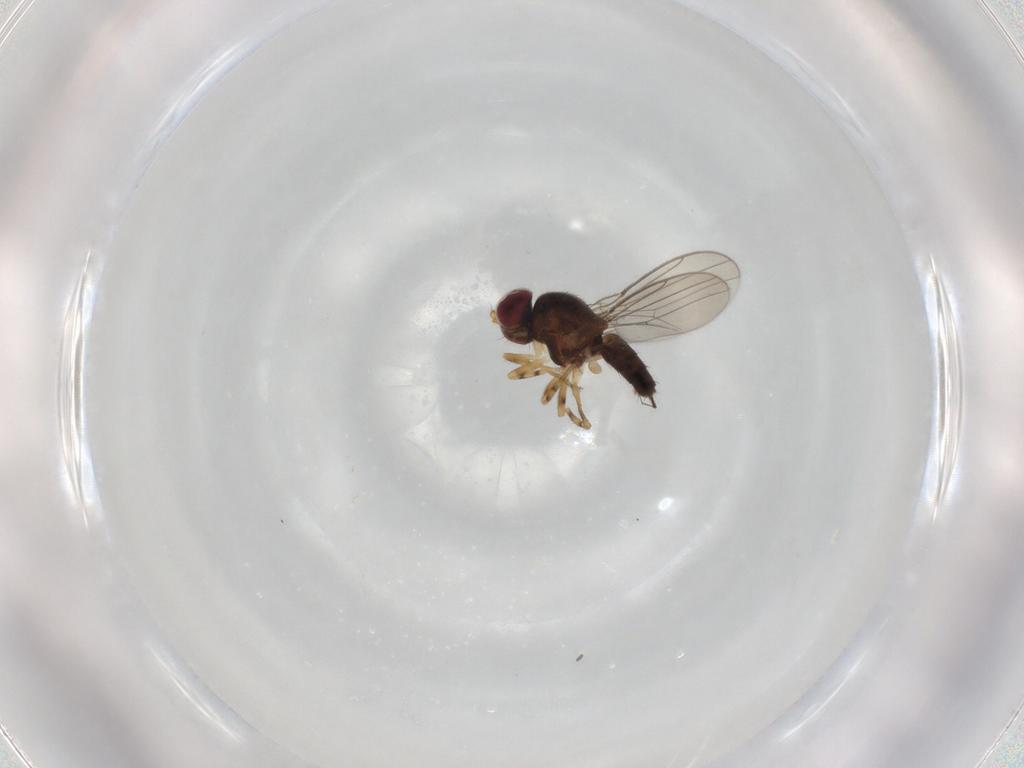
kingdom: Animalia
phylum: Arthropoda
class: Insecta
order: Diptera
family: Chloropidae
